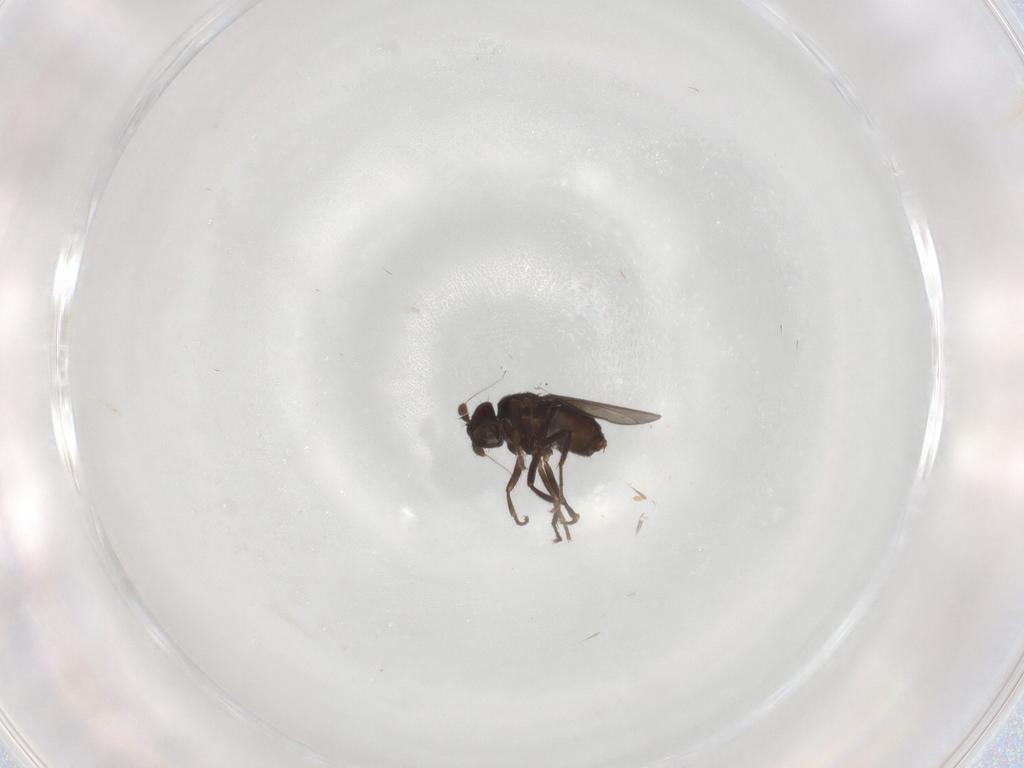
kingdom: Animalia
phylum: Arthropoda
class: Insecta
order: Diptera
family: Sphaeroceridae
